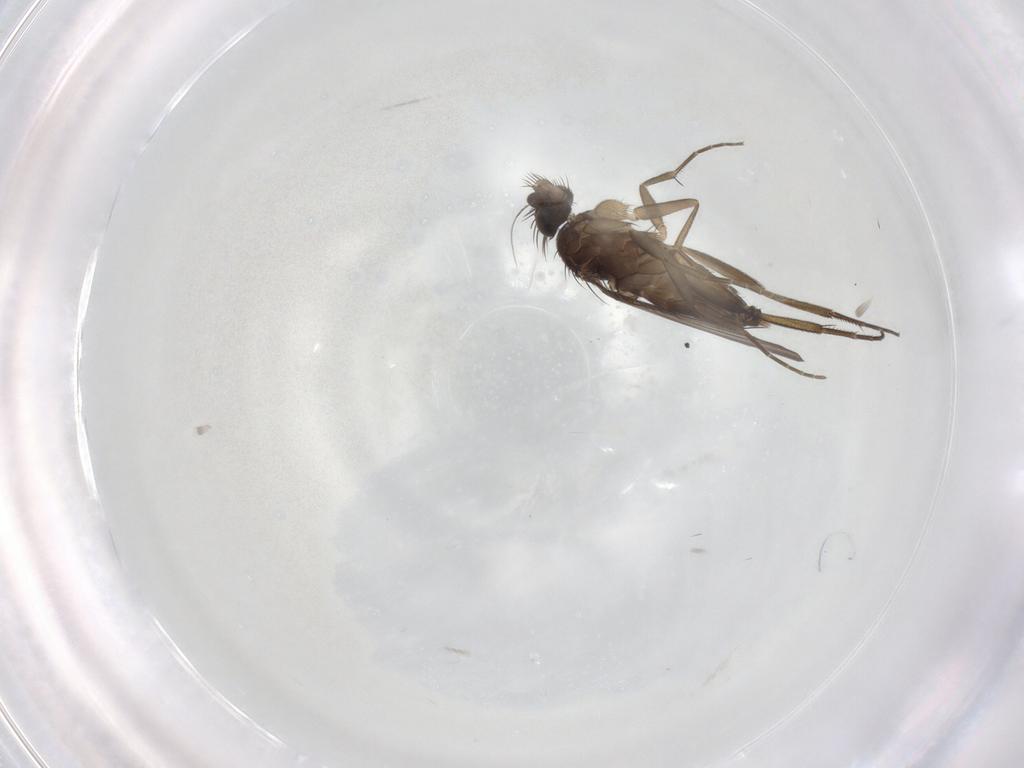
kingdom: Animalia
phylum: Arthropoda
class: Insecta
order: Diptera
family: Phoridae
